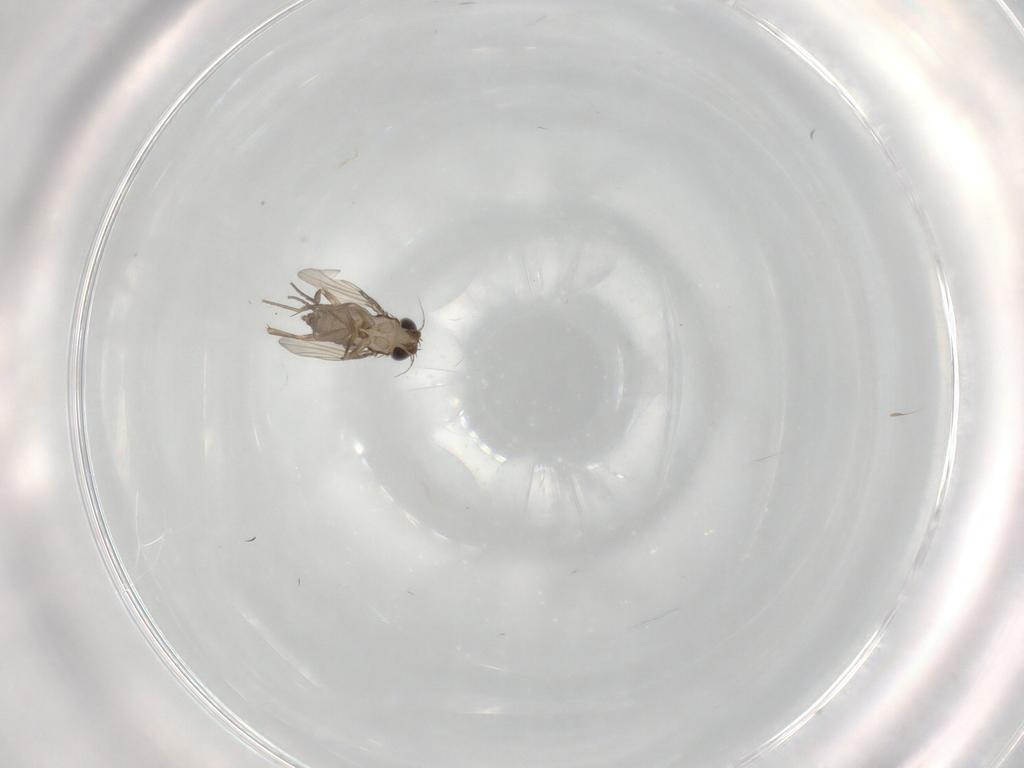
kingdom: Animalia
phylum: Arthropoda
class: Insecta
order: Diptera
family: Phoridae
